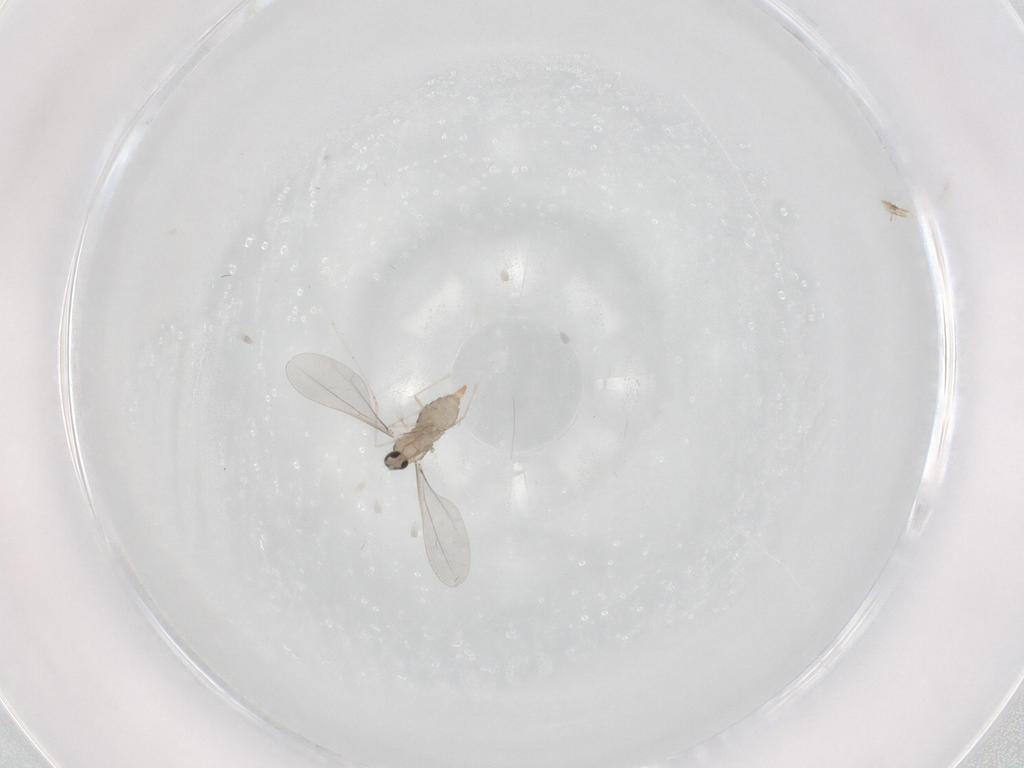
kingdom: Animalia
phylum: Arthropoda
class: Insecta
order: Diptera
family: Cecidomyiidae
